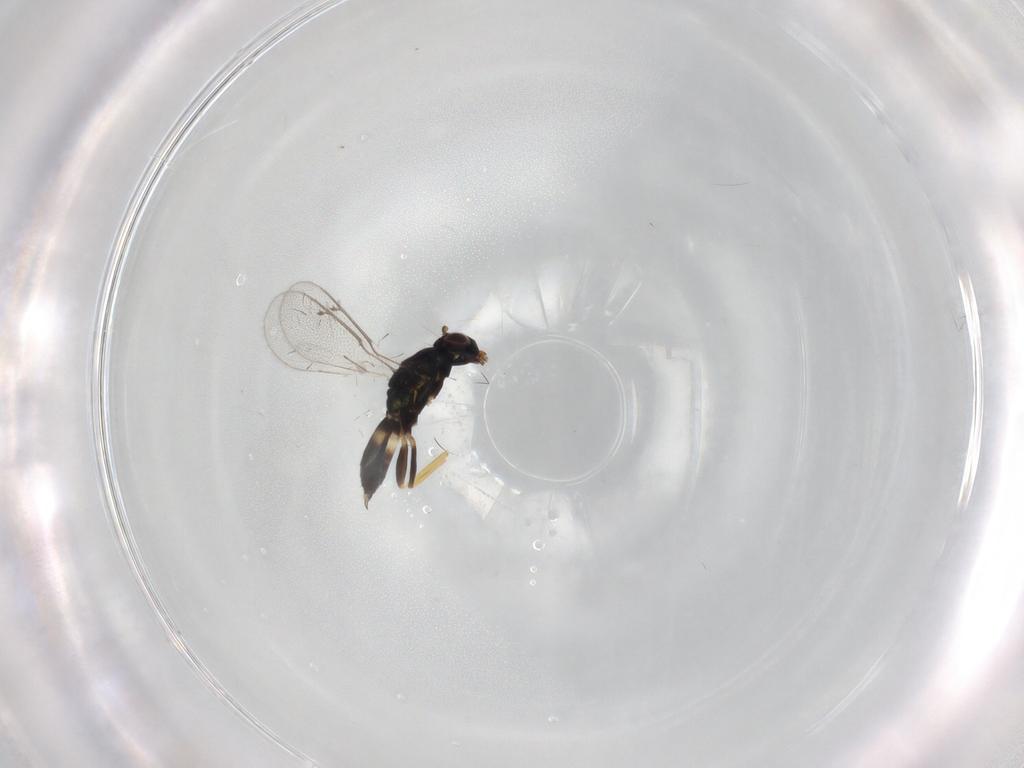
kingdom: Animalia
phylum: Arthropoda
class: Insecta
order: Hymenoptera
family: Eulophidae
